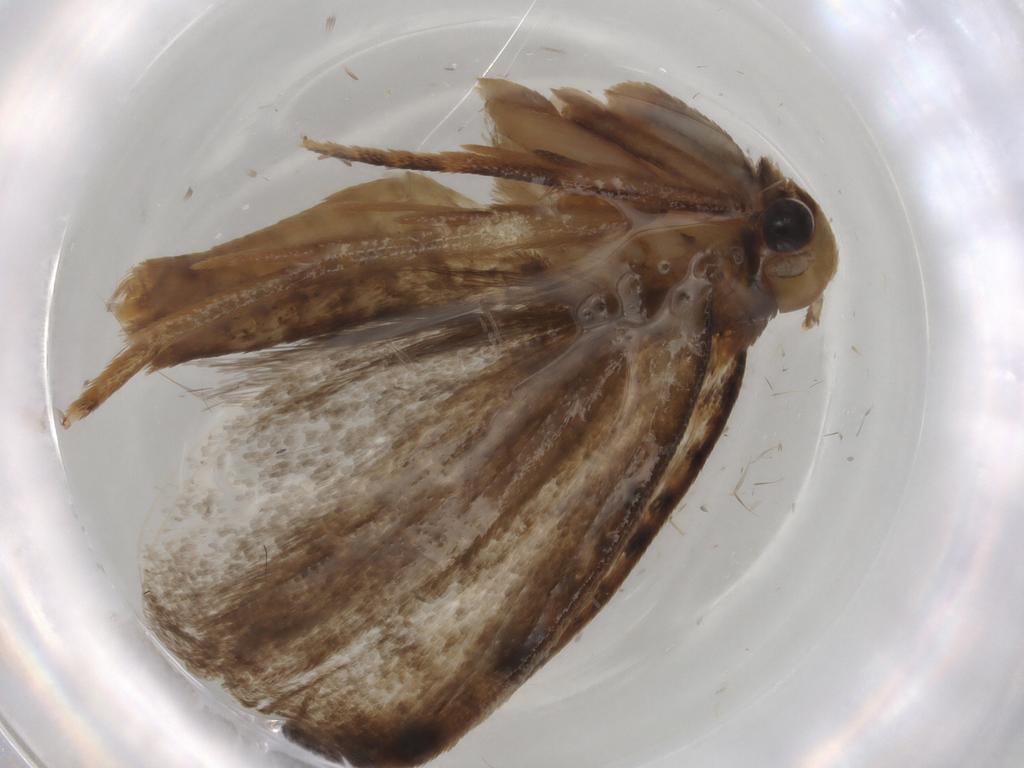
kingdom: Animalia
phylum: Arthropoda
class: Insecta
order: Lepidoptera
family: Tineidae
